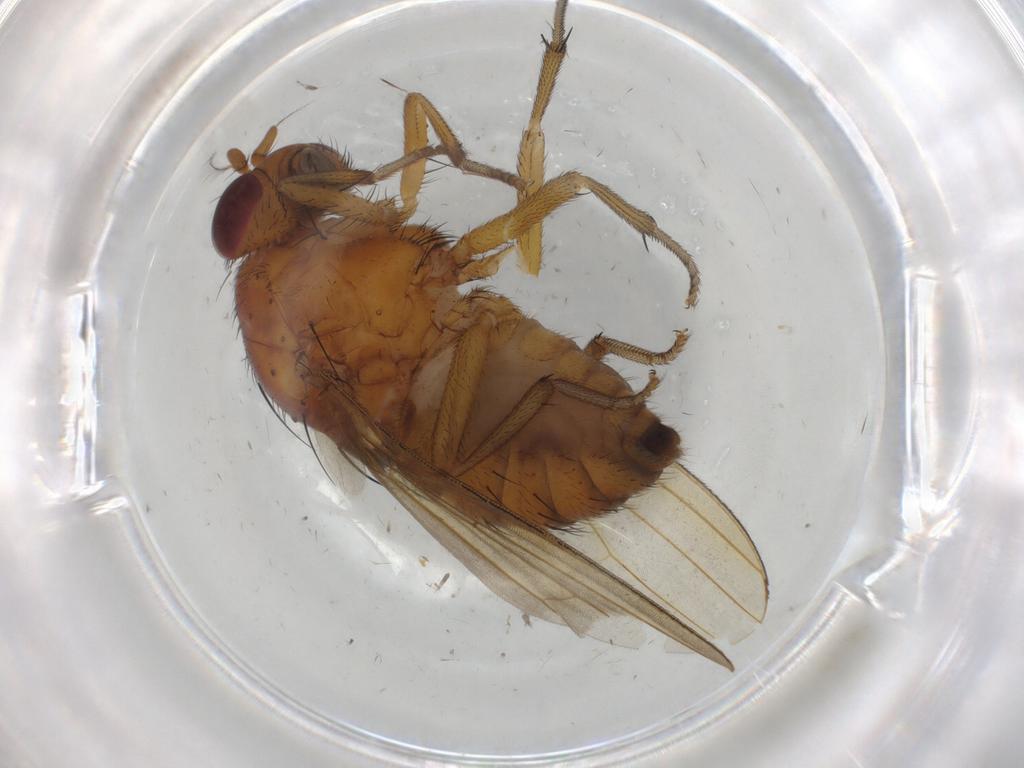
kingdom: Animalia
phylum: Arthropoda
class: Insecta
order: Diptera
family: Mycetophilidae
